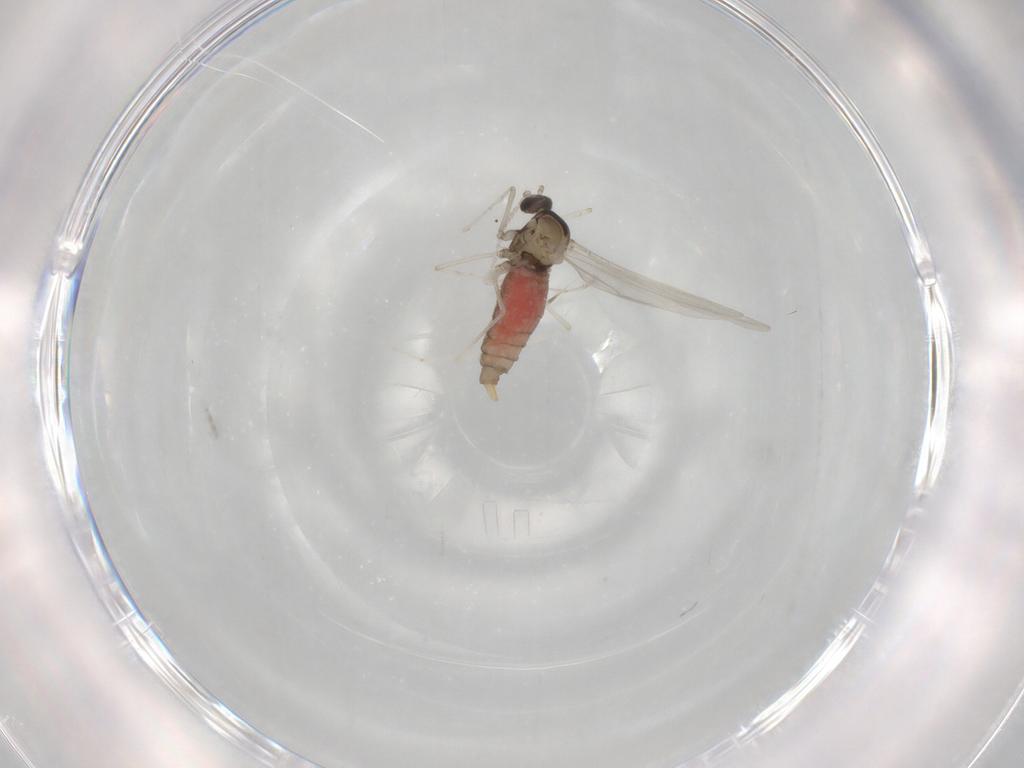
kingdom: Animalia
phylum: Arthropoda
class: Insecta
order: Diptera
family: Cecidomyiidae
